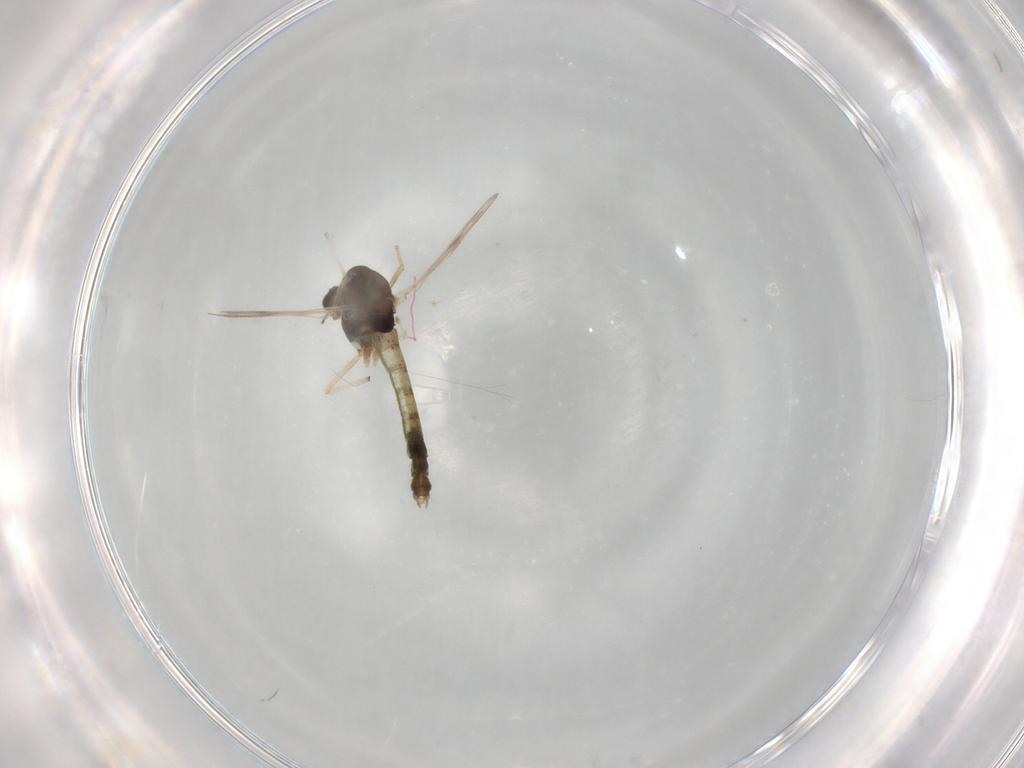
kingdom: Animalia
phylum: Arthropoda
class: Insecta
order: Diptera
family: Chironomidae
